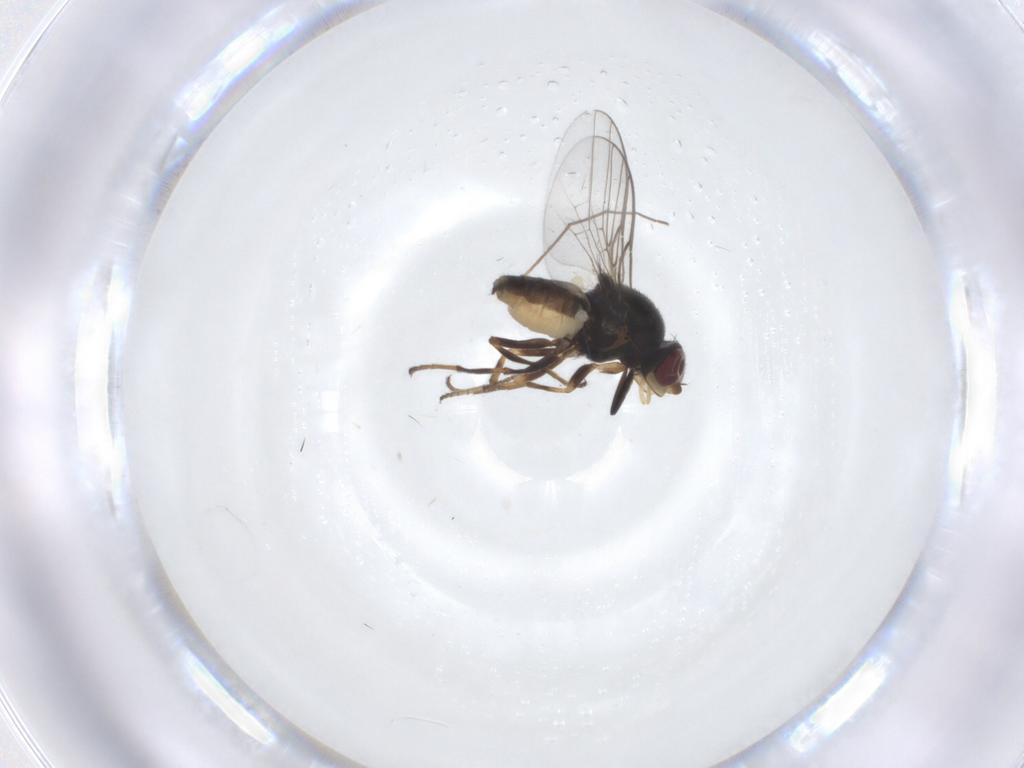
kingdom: Animalia
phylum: Arthropoda
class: Insecta
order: Diptera
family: Chloropidae
